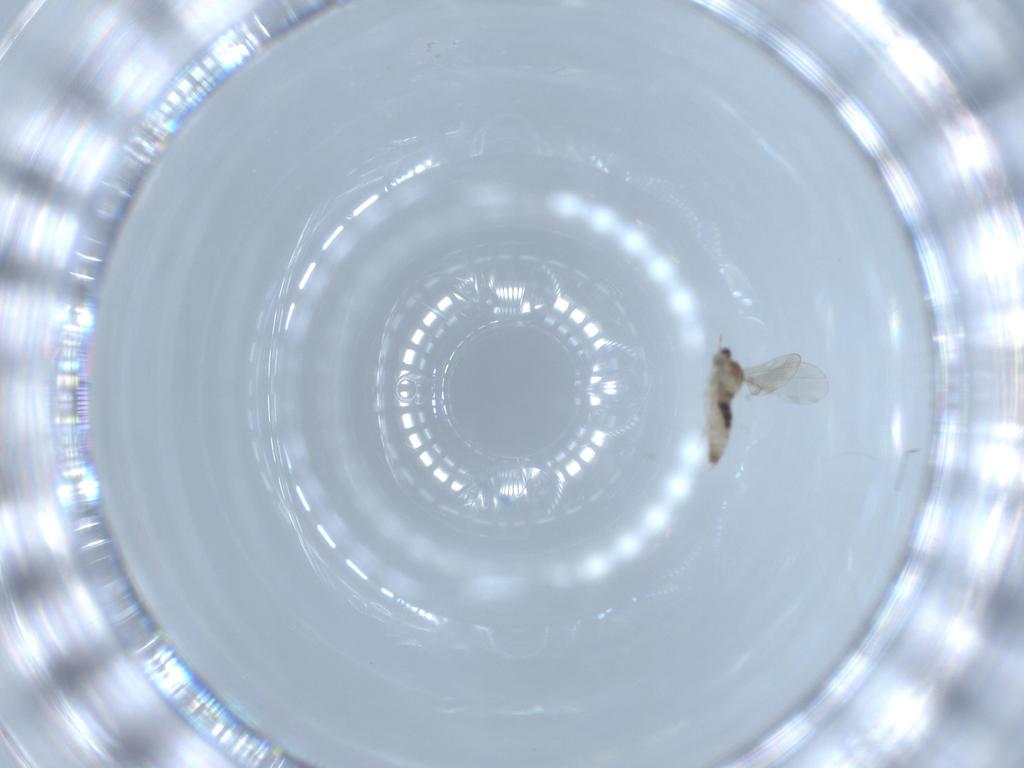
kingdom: Animalia
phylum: Arthropoda
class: Insecta
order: Diptera
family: Cecidomyiidae
